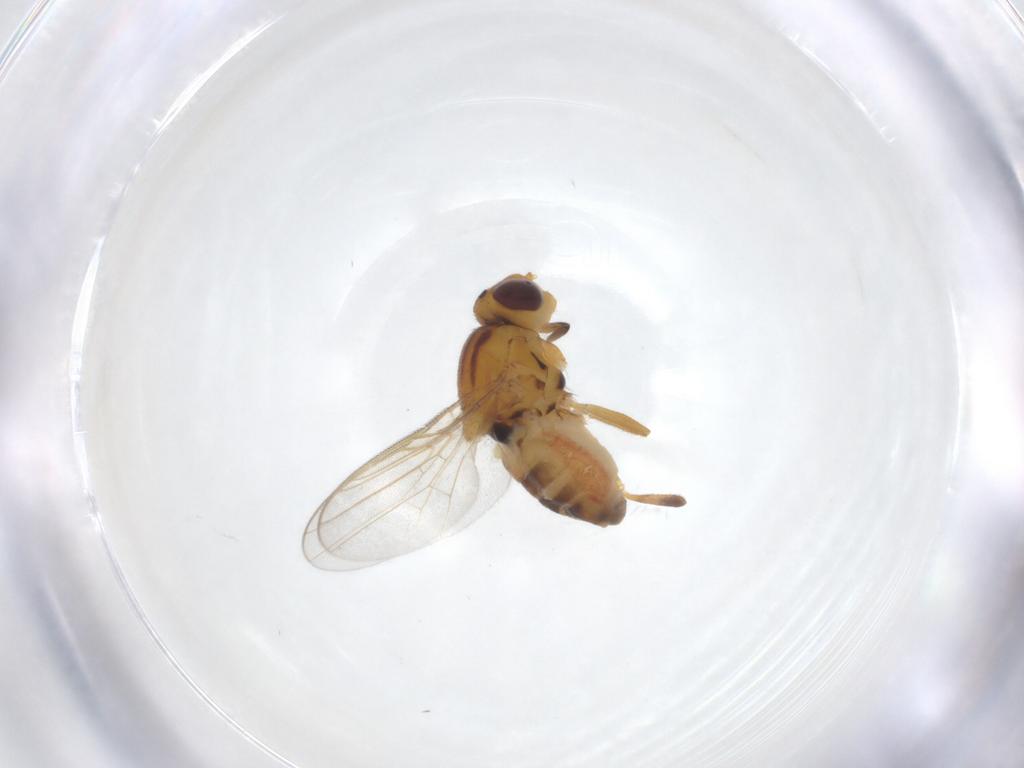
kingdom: Animalia
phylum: Arthropoda
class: Insecta
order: Diptera
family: Chloropidae
